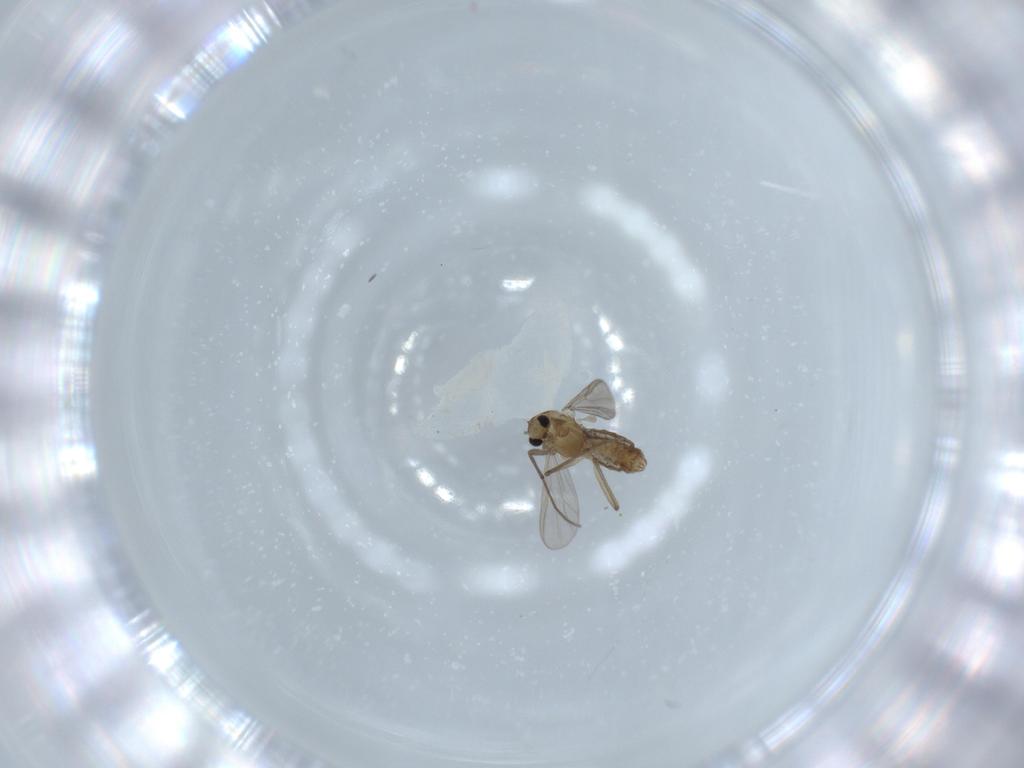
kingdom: Animalia
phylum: Arthropoda
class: Insecta
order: Diptera
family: Chironomidae
